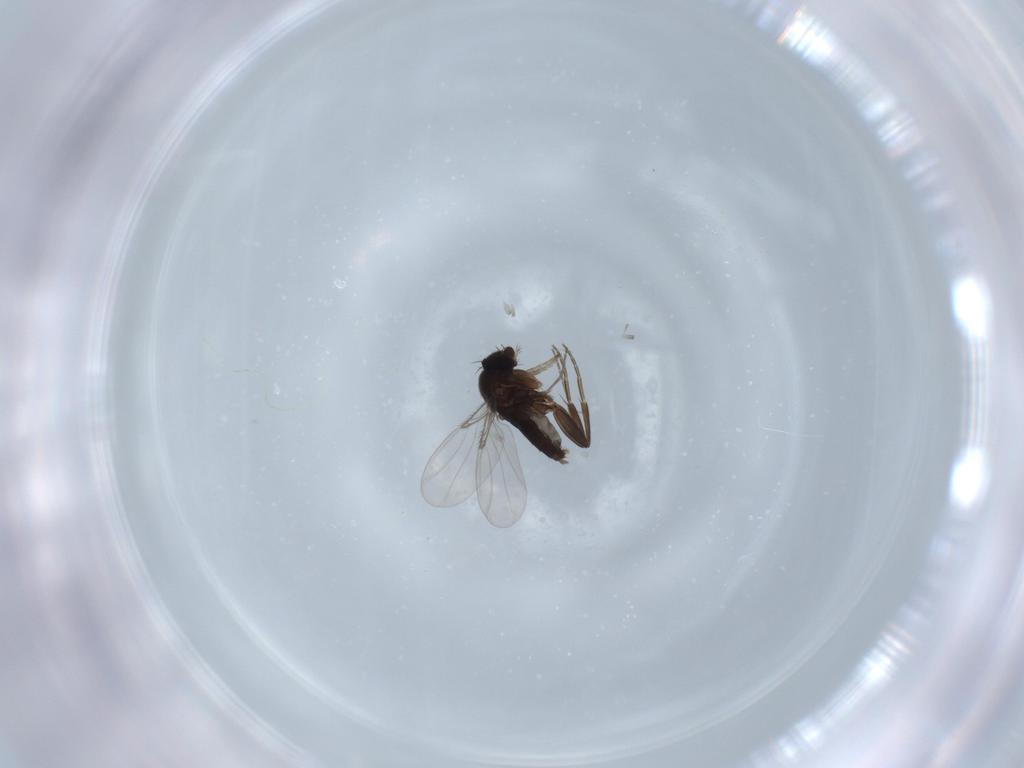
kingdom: Animalia
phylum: Arthropoda
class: Insecta
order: Diptera
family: Phoridae
